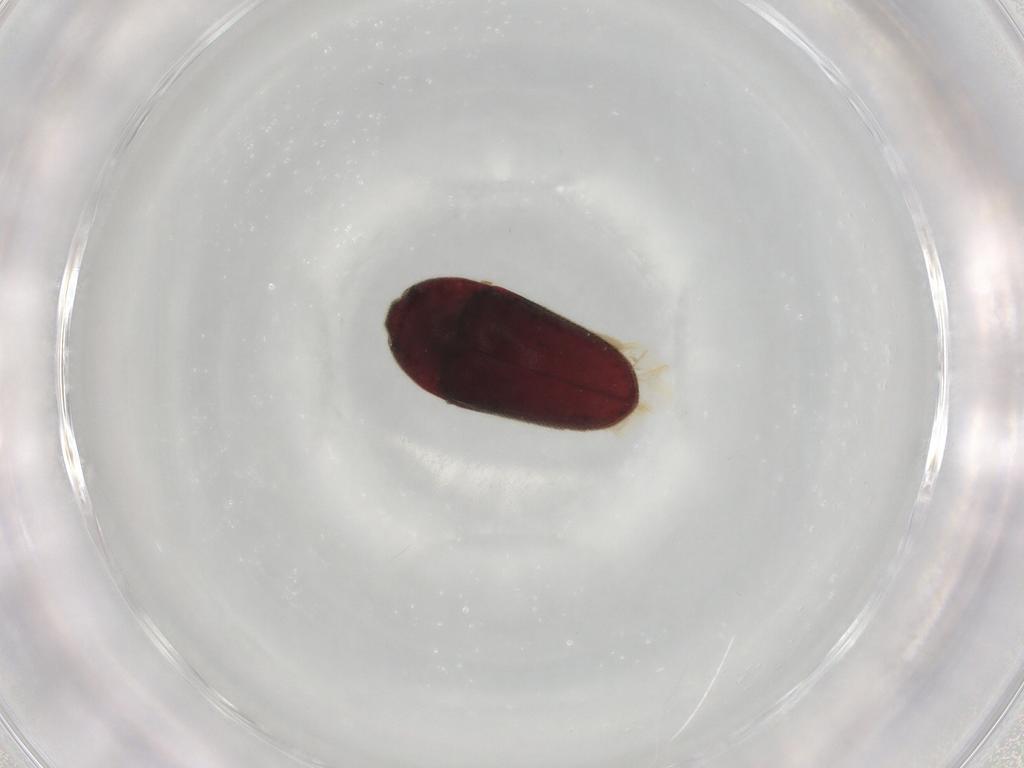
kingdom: Animalia
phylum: Arthropoda
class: Insecta
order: Coleoptera
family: Throscidae
